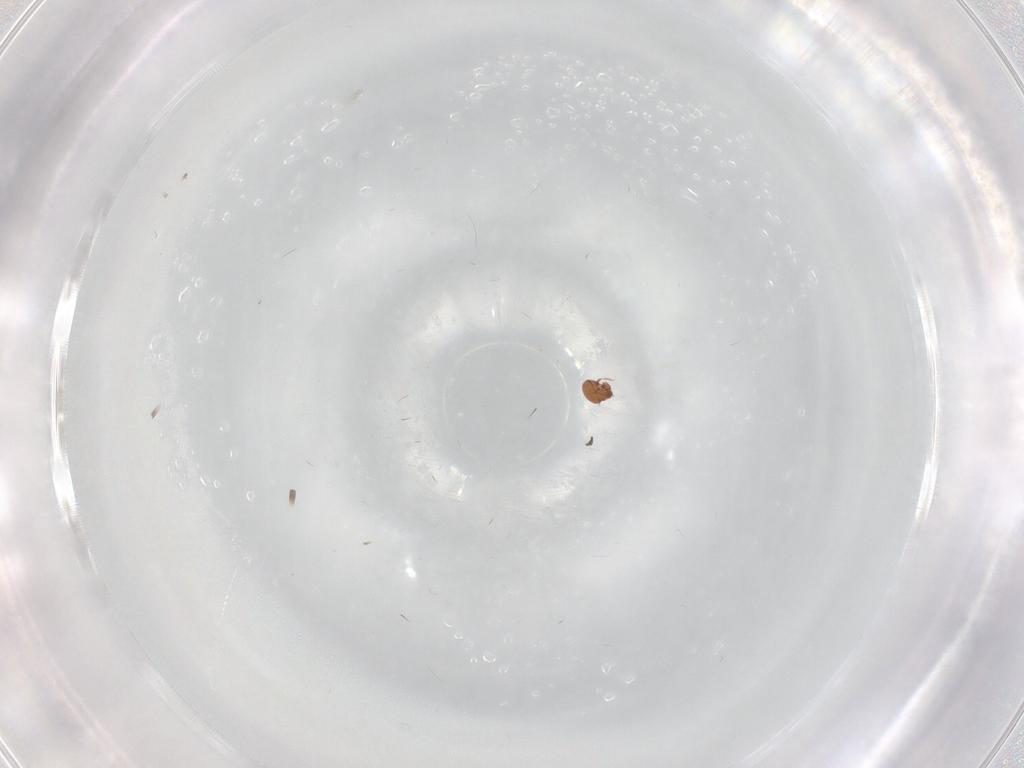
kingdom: Animalia
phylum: Arthropoda
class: Arachnida
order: Sarcoptiformes
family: Oribatulidae
